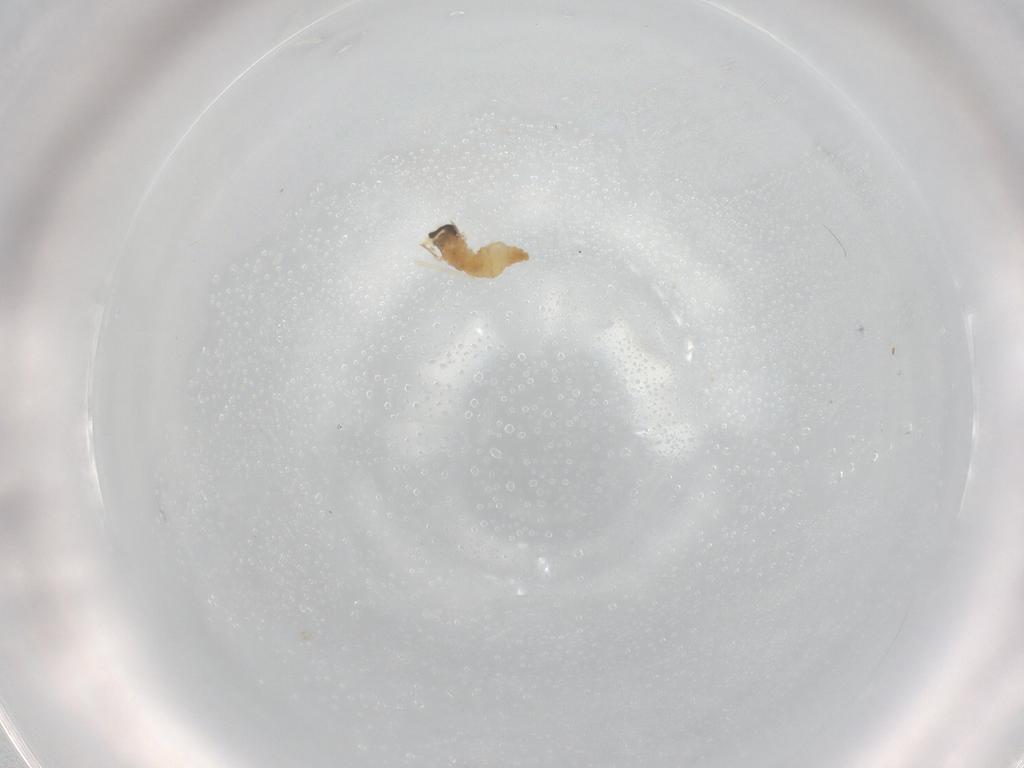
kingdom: Animalia
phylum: Arthropoda
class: Insecta
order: Diptera
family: Cecidomyiidae
